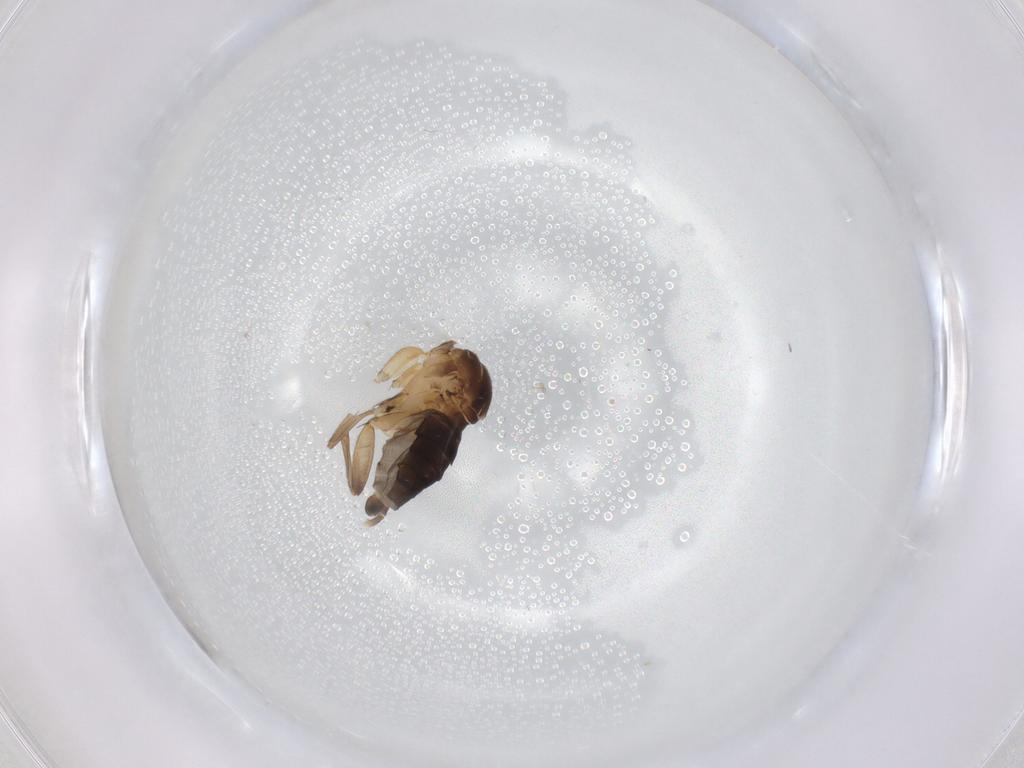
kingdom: Animalia
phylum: Arthropoda
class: Insecta
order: Diptera
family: Phoridae
